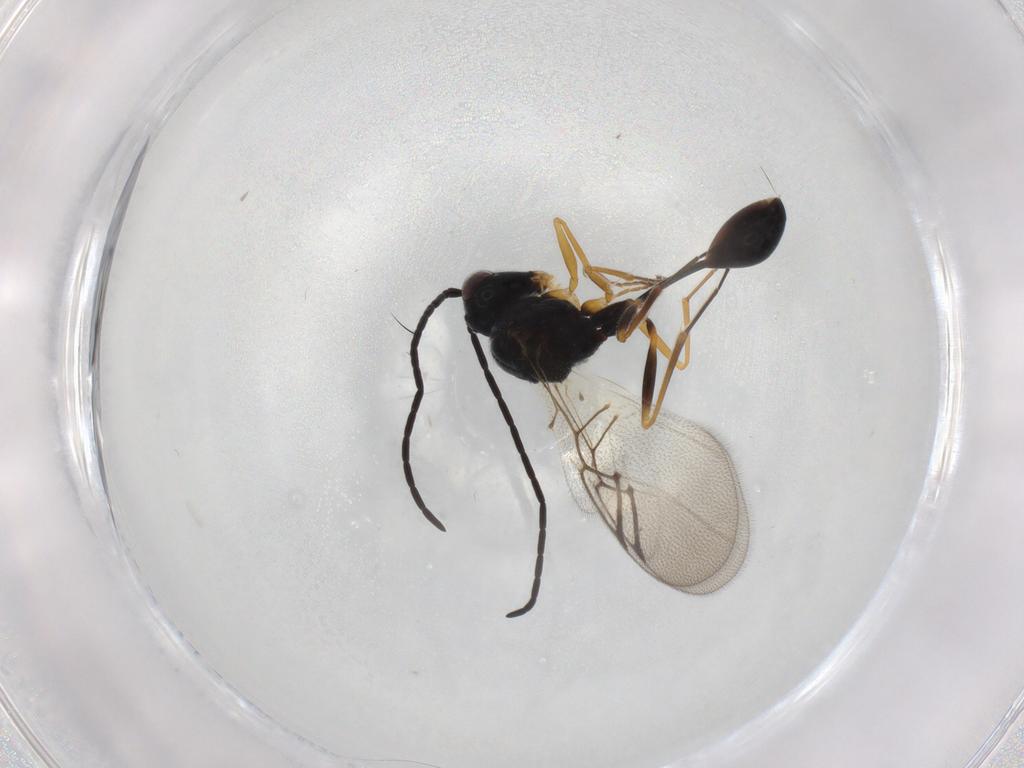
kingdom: Animalia
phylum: Arthropoda
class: Insecta
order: Hymenoptera
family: Figitidae
